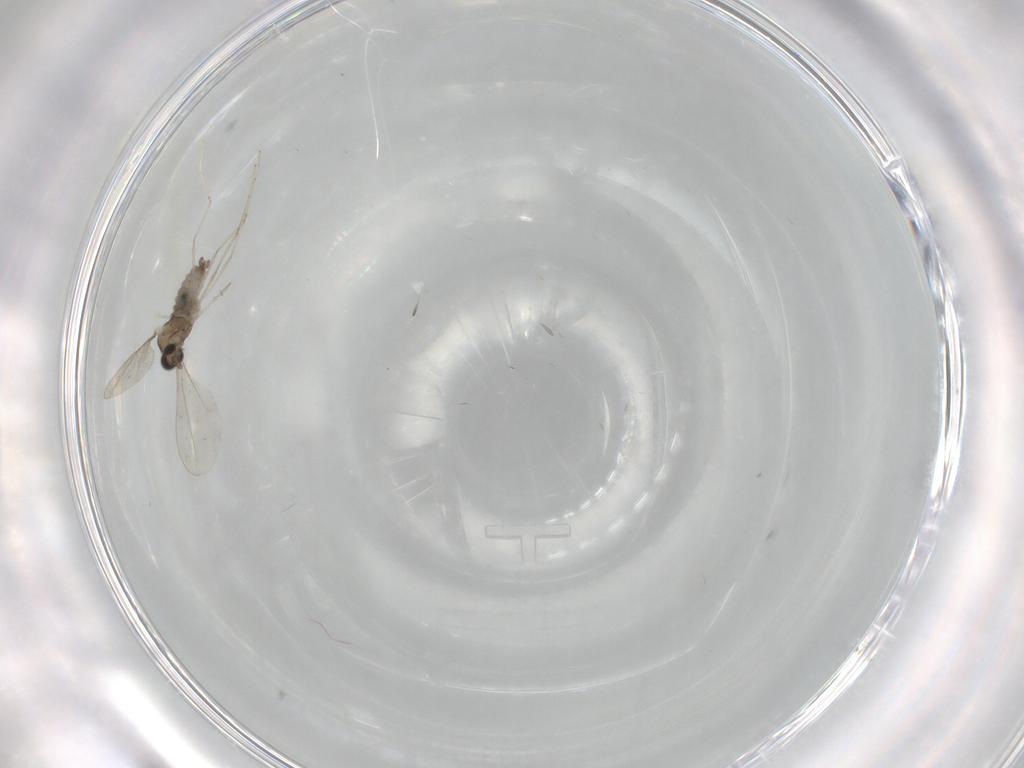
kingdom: Animalia
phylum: Arthropoda
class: Insecta
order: Diptera
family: Cecidomyiidae
